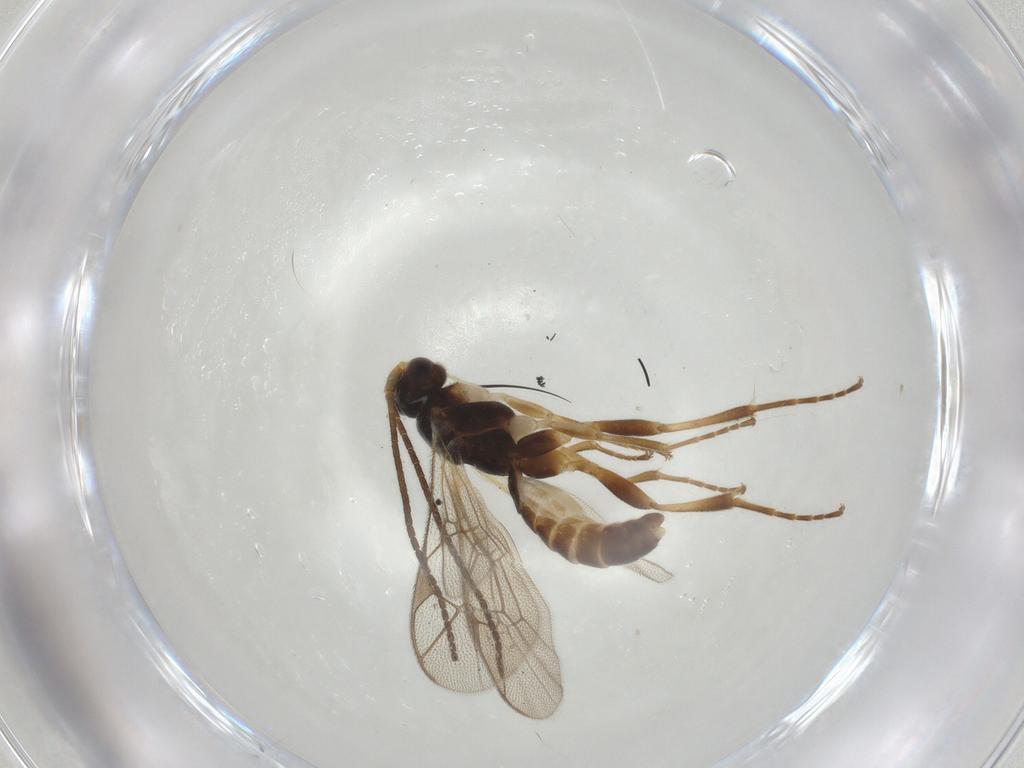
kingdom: Animalia
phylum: Arthropoda
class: Insecta
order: Hymenoptera
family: Ichneumonidae
